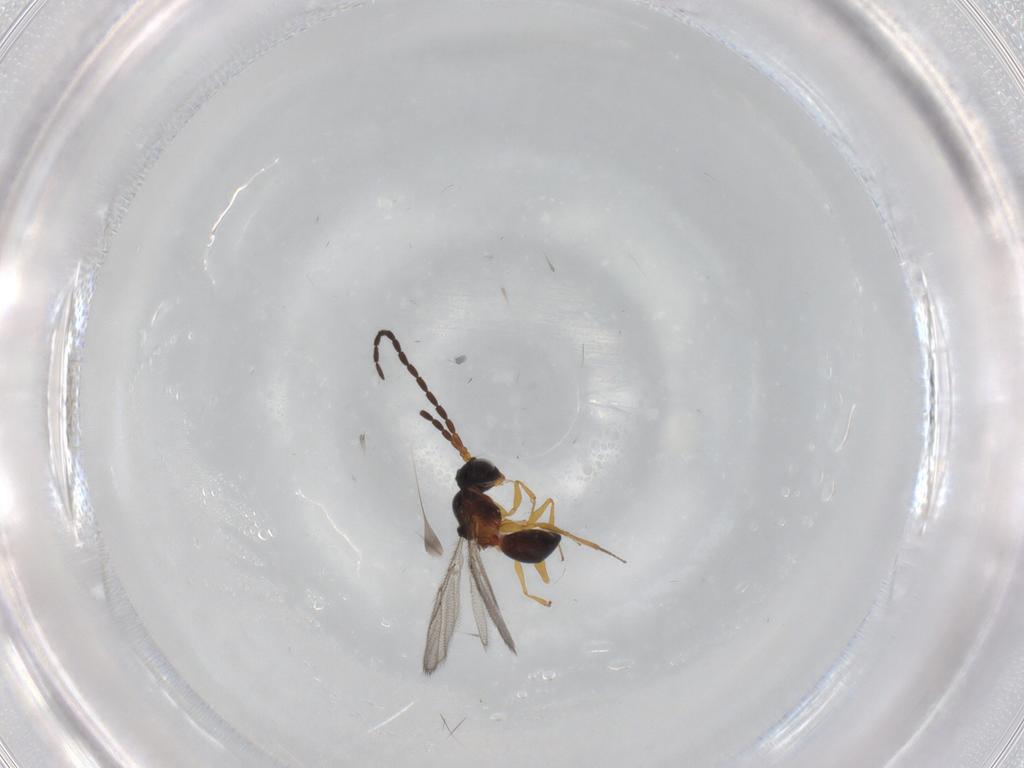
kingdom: Animalia
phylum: Arthropoda
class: Insecta
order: Hymenoptera
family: Figitidae
